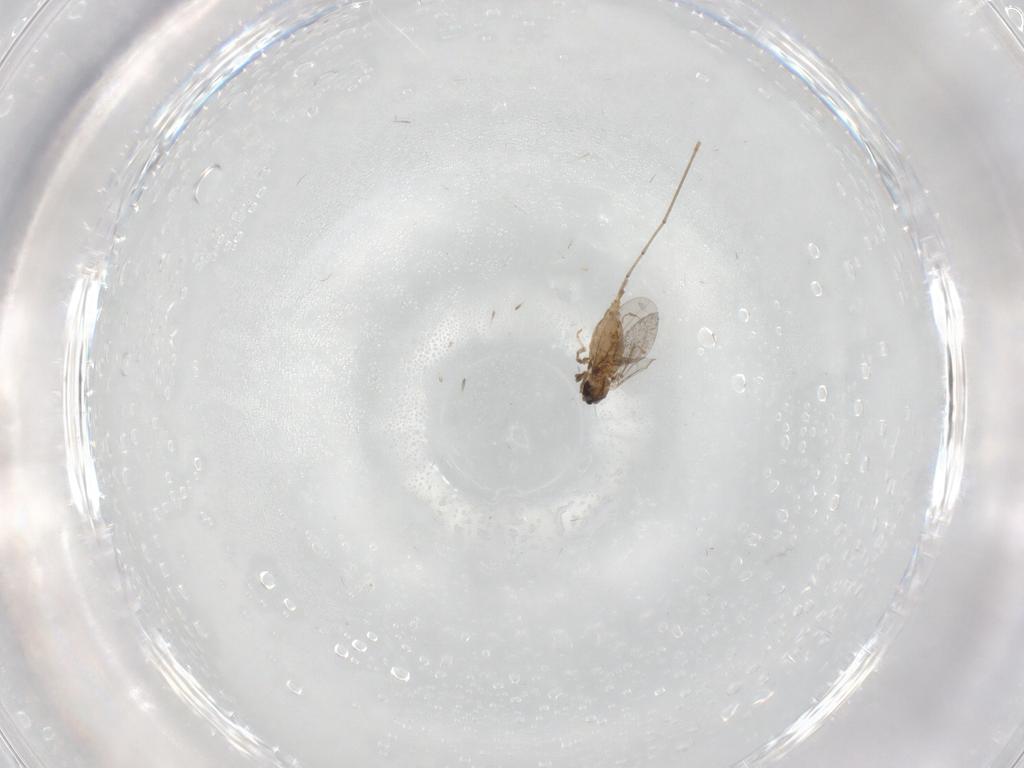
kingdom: Animalia
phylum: Arthropoda
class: Insecta
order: Diptera
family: Cecidomyiidae
